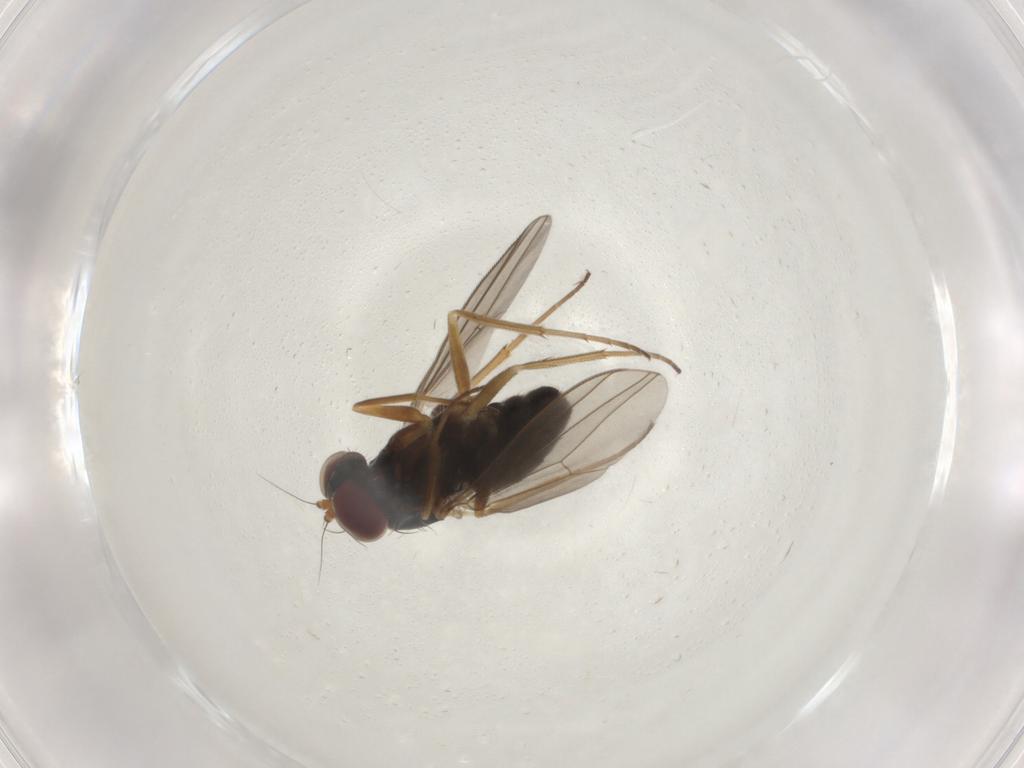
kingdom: Animalia
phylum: Arthropoda
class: Insecta
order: Diptera
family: Dolichopodidae
